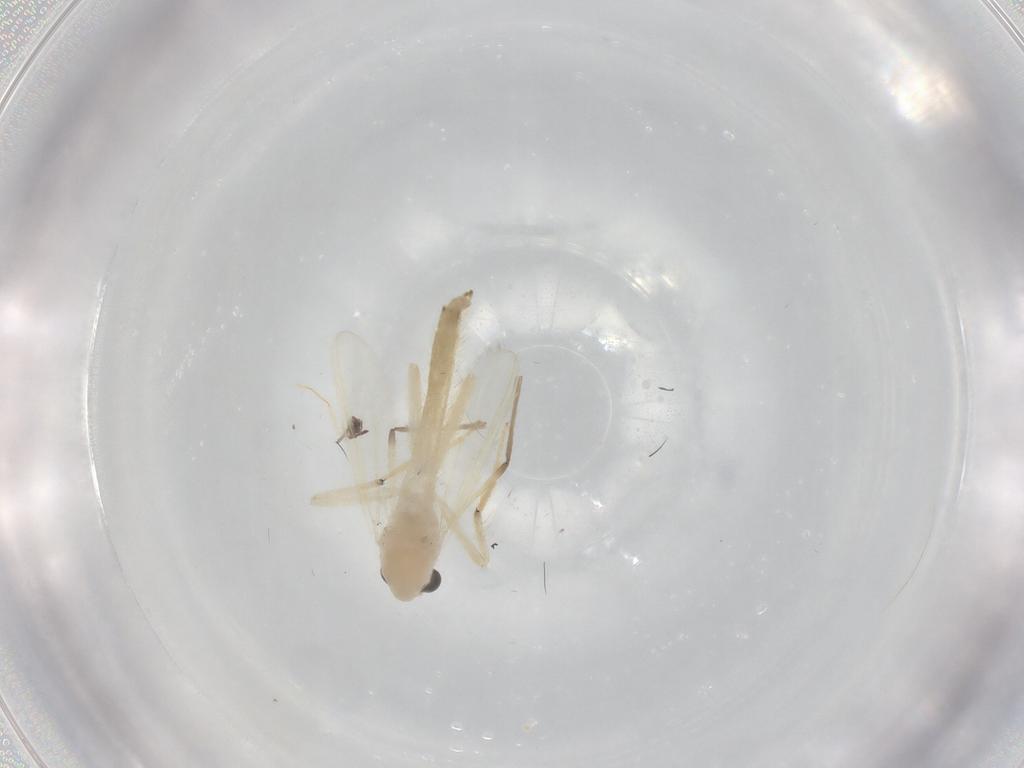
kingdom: Animalia
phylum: Arthropoda
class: Insecta
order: Diptera
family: Chironomidae
